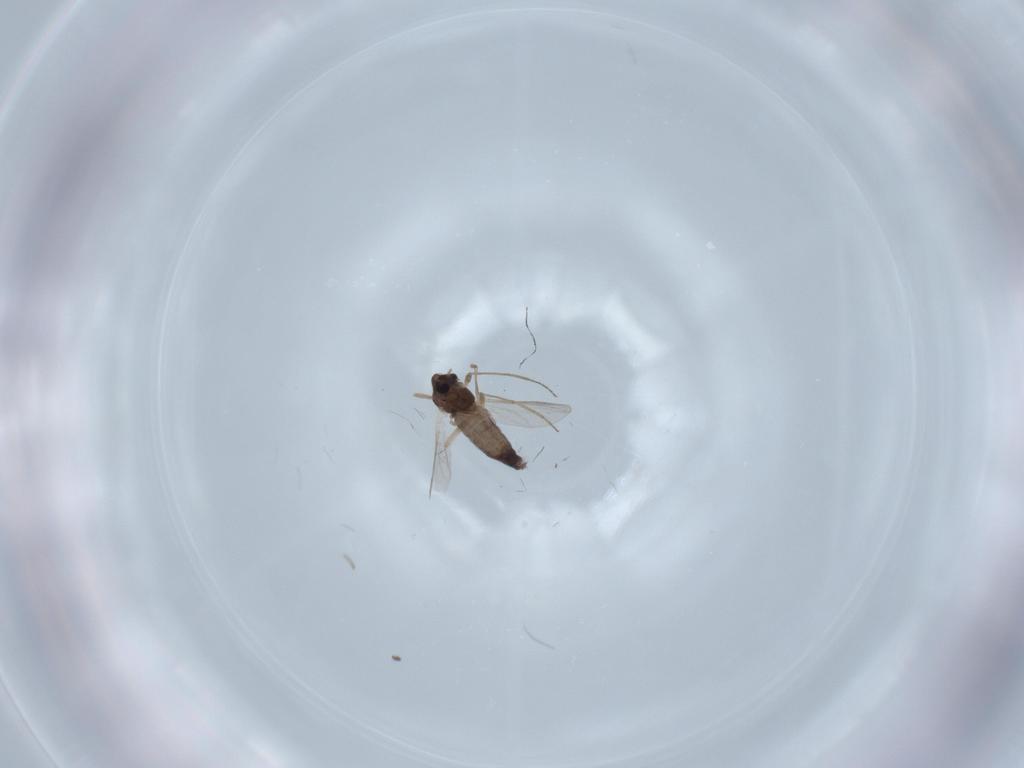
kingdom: Animalia
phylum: Arthropoda
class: Insecta
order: Diptera
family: Chironomidae
